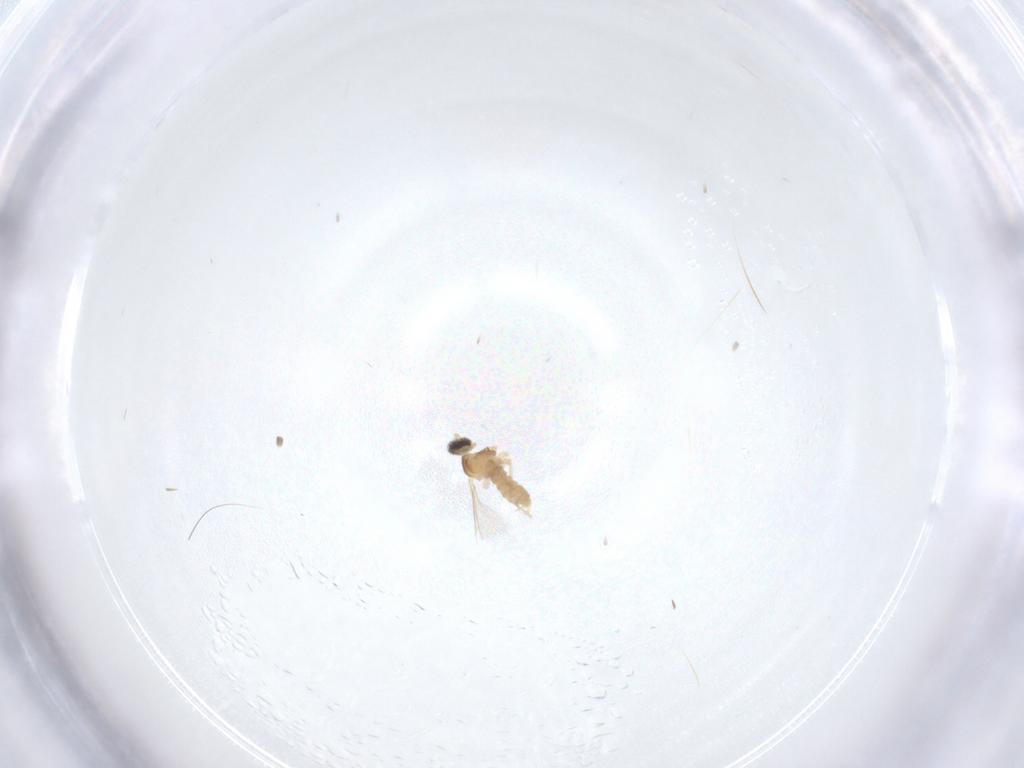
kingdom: Animalia
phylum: Arthropoda
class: Insecta
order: Diptera
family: Cecidomyiidae
